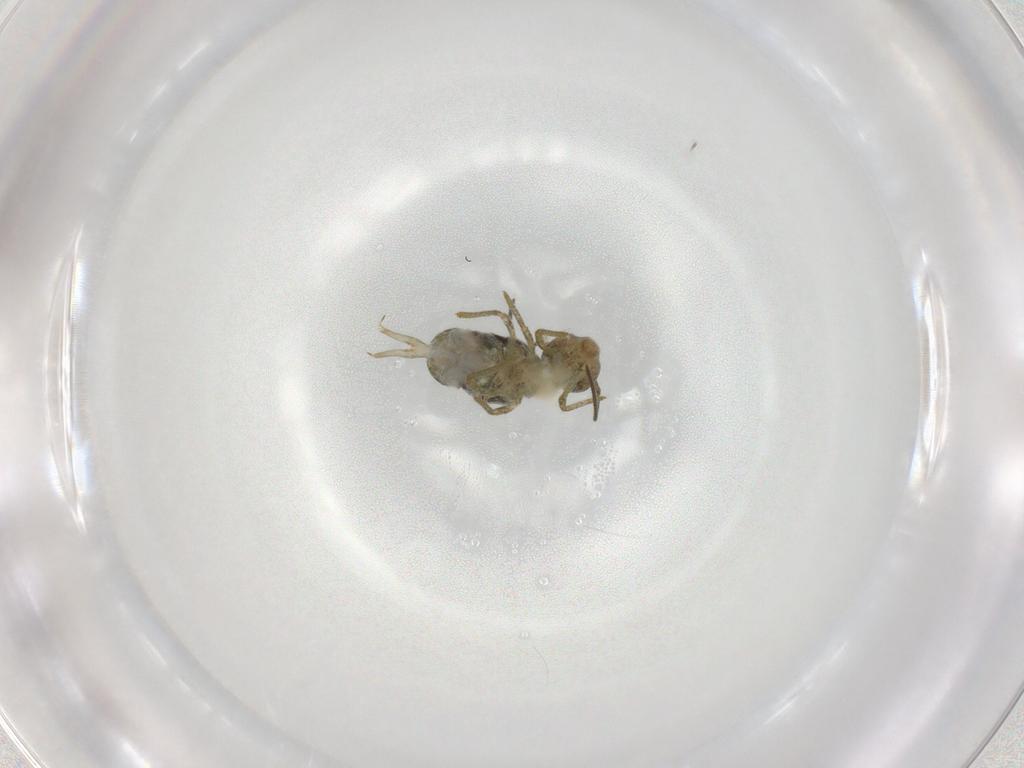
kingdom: Animalia
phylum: Arthropoda
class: Collembola
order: Symphypleona
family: Sminthuridae
